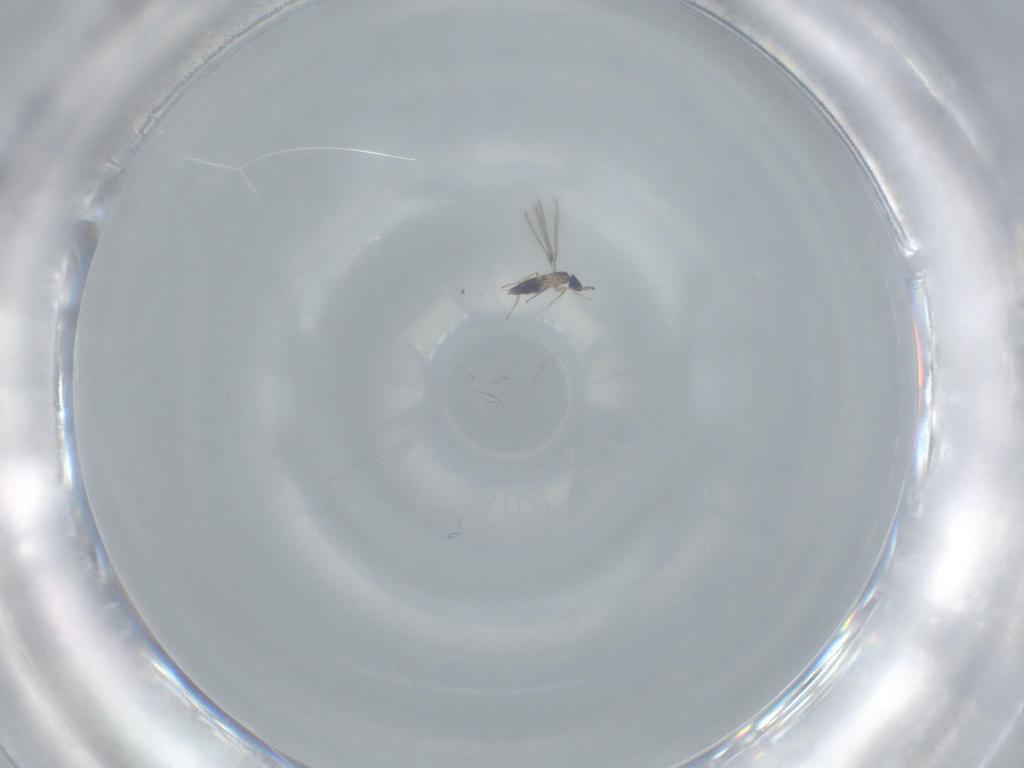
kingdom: Animalia
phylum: Arthropoda
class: Insecta
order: Hymenoptera
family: Mymaridae
